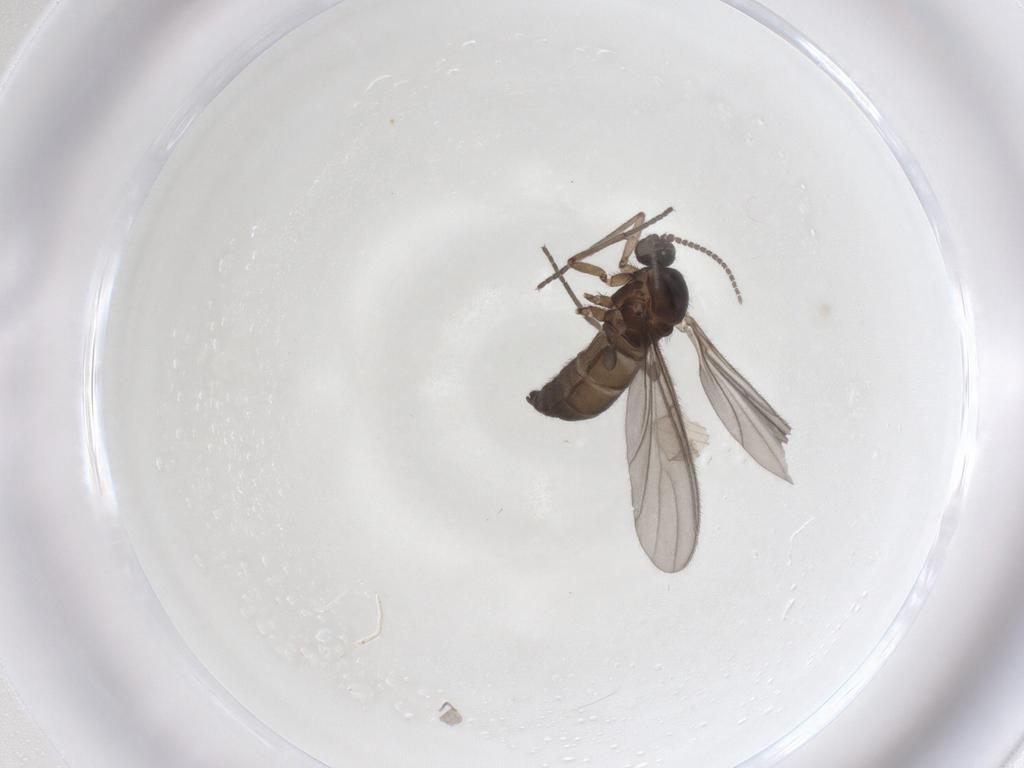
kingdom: Animalia
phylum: Arthropoda
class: Insecta
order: Diptera
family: Sciaridae
